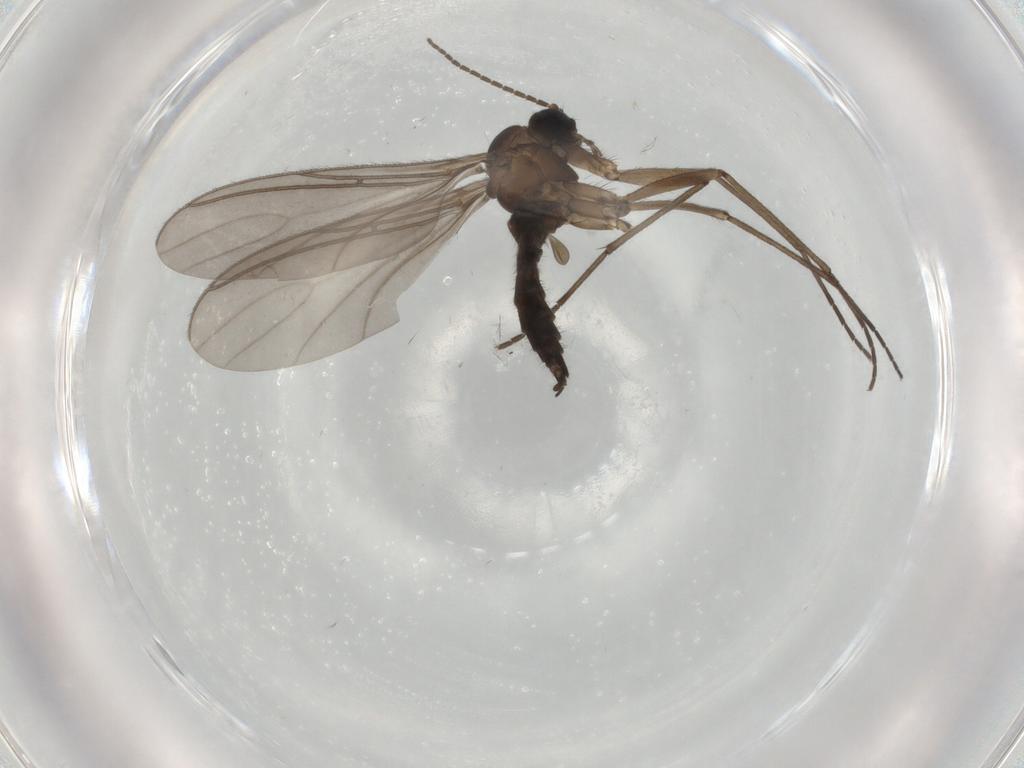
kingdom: Animalia
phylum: Arthropoda
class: Insecta
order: Diptera
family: Sciaridae
